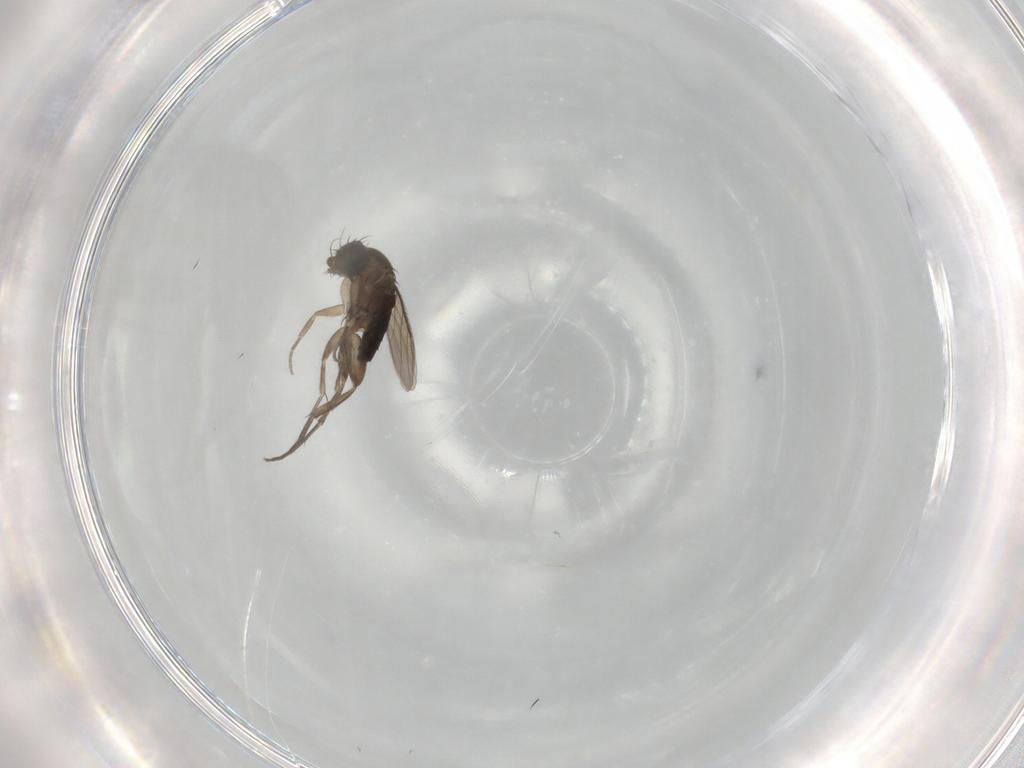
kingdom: Animalia
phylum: Arthropoda
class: Insecta
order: Diptera
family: Phoridae
